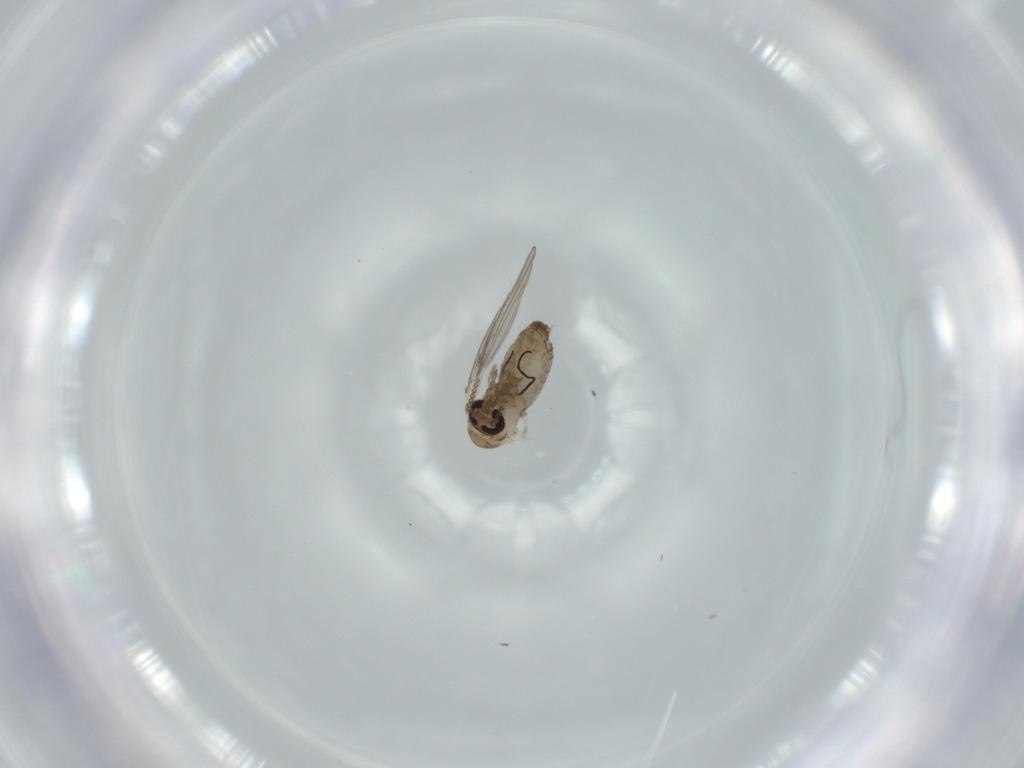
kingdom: Animalia
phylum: Arthropoda
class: Insecta
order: Diptera
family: Psychodidae
